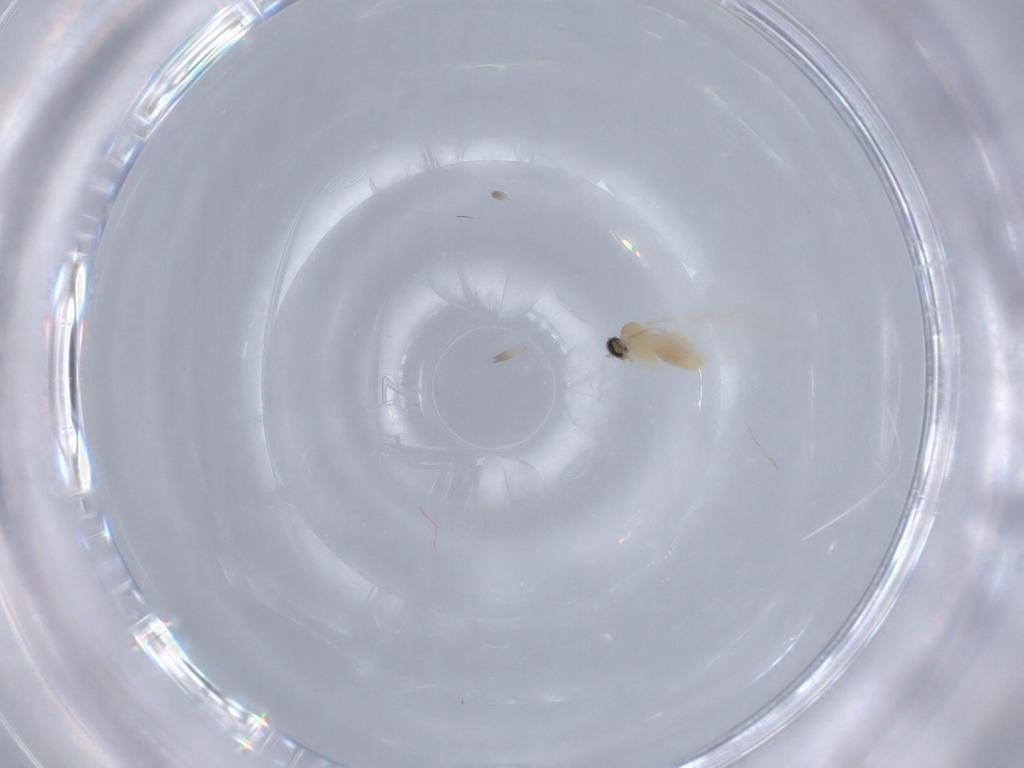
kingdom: Animalia
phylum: Arthropoda
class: Insecta
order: Diptera
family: Cecidomyiidae
